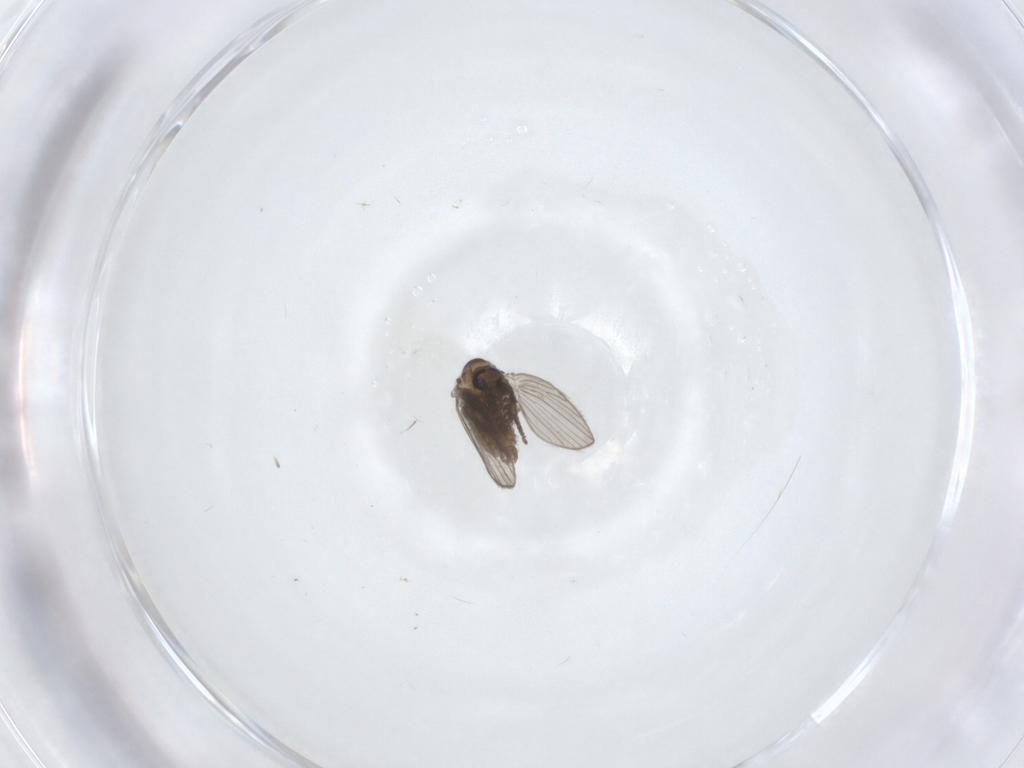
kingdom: Animalia
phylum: Arthropoda
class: Insecta
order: Diptera
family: Psychodidae
